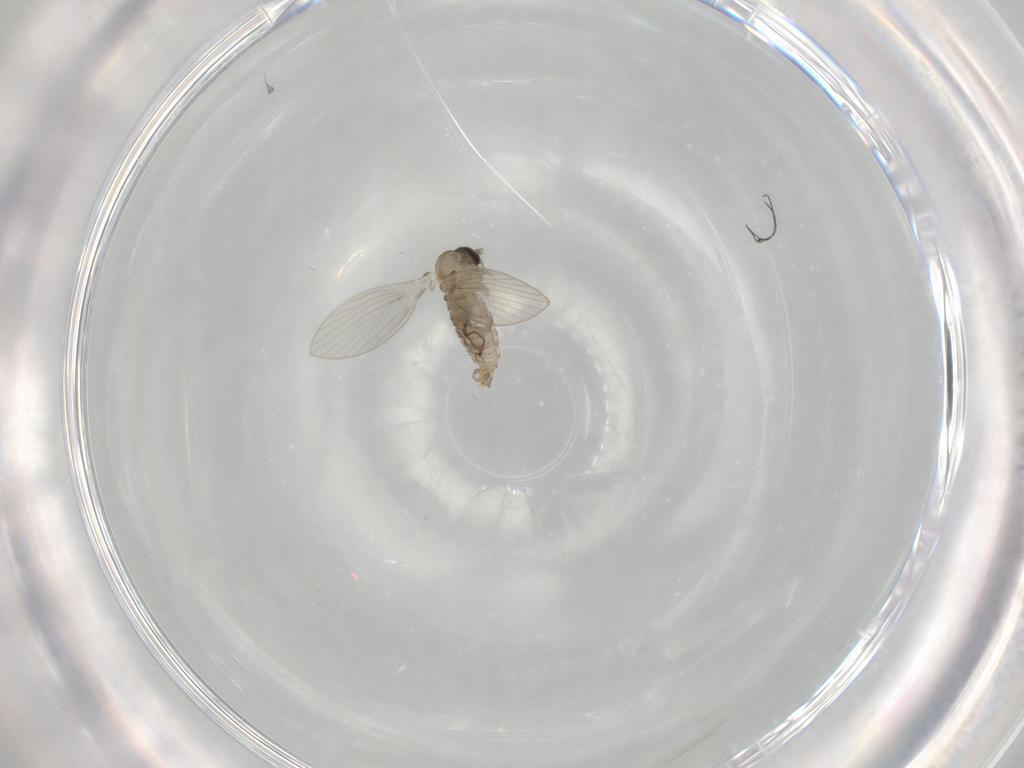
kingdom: Animalia
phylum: Arthropoda
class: Insecta
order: Diptera
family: Psychodidae
